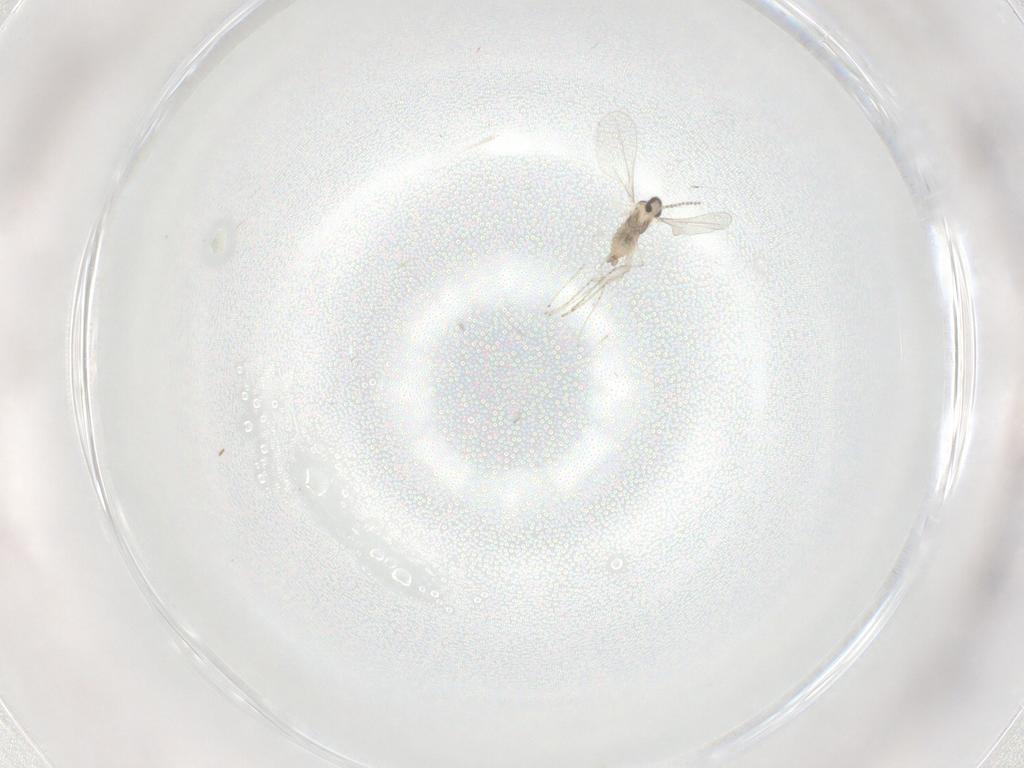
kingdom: Animalia
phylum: Arthropoda
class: Insecta
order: Diptera
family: Cecidomyiidae
